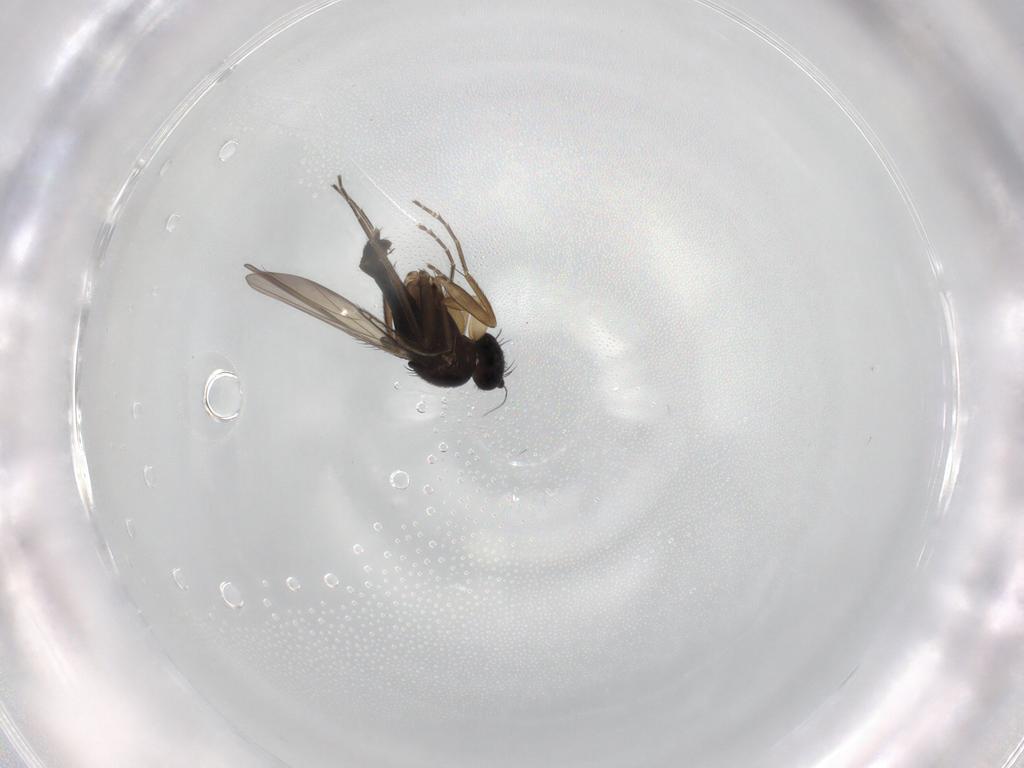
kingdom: Animalia
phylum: Arthropoda
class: Insecta
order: Diptera
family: Phoridae
